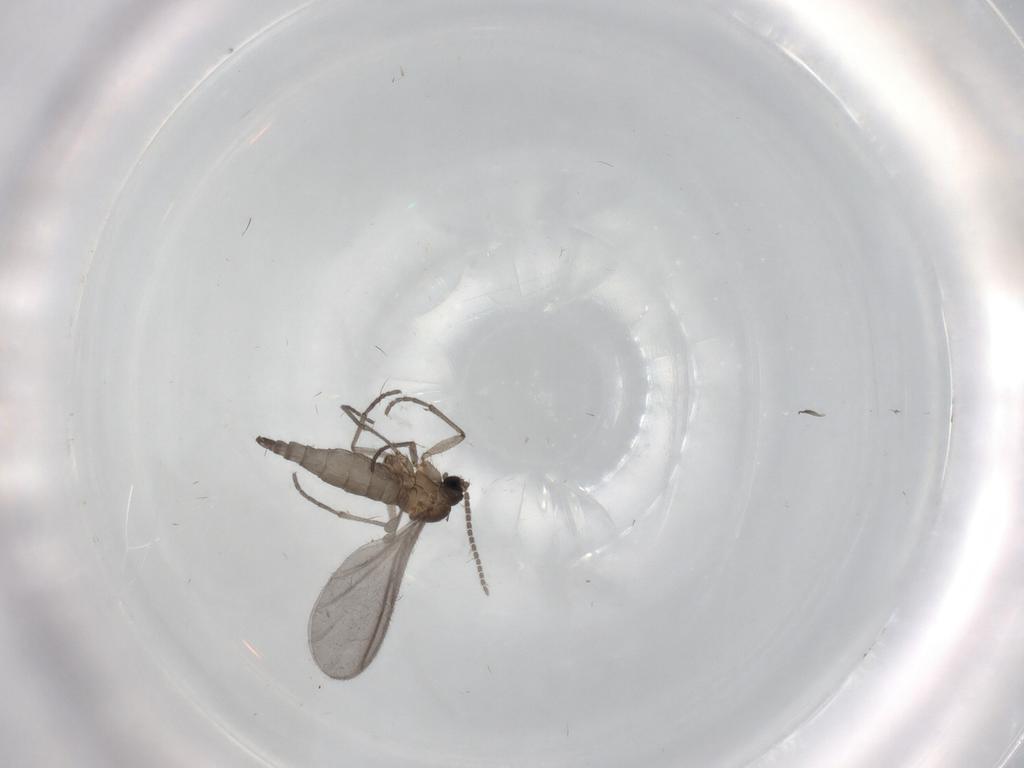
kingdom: Animalia
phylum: Arthropoda
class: Insecta
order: Diptera
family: Sciaridae
